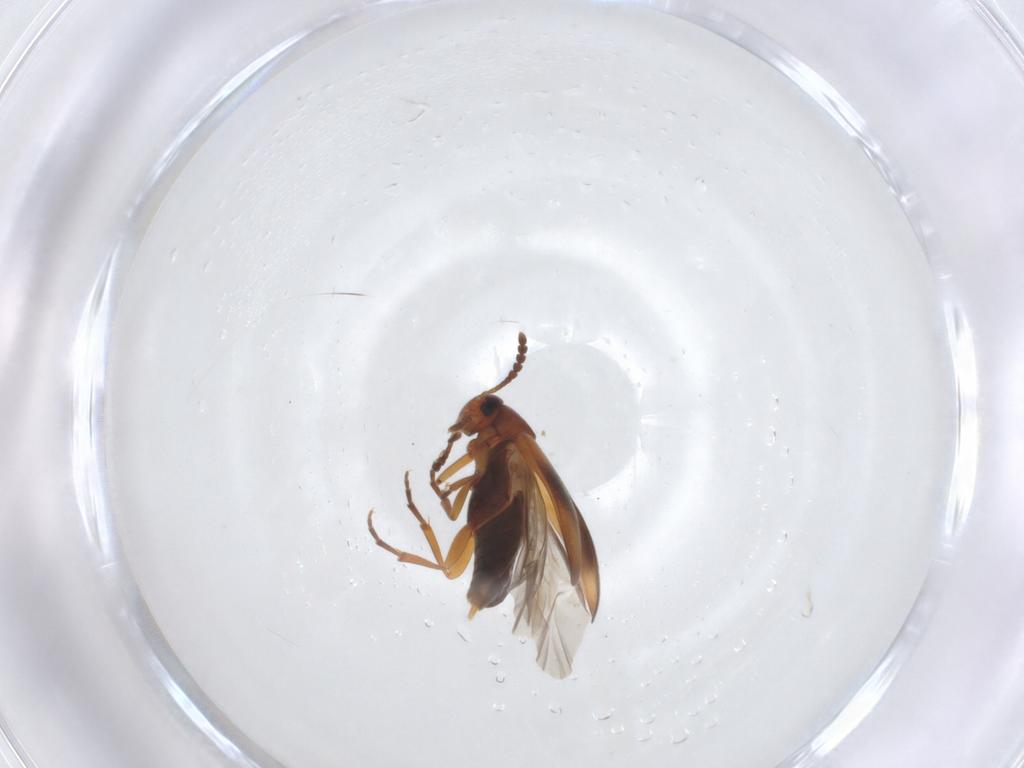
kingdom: Animalia
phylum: Arthropoda
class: Insecta
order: Coleoptera
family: Scraptiidae
